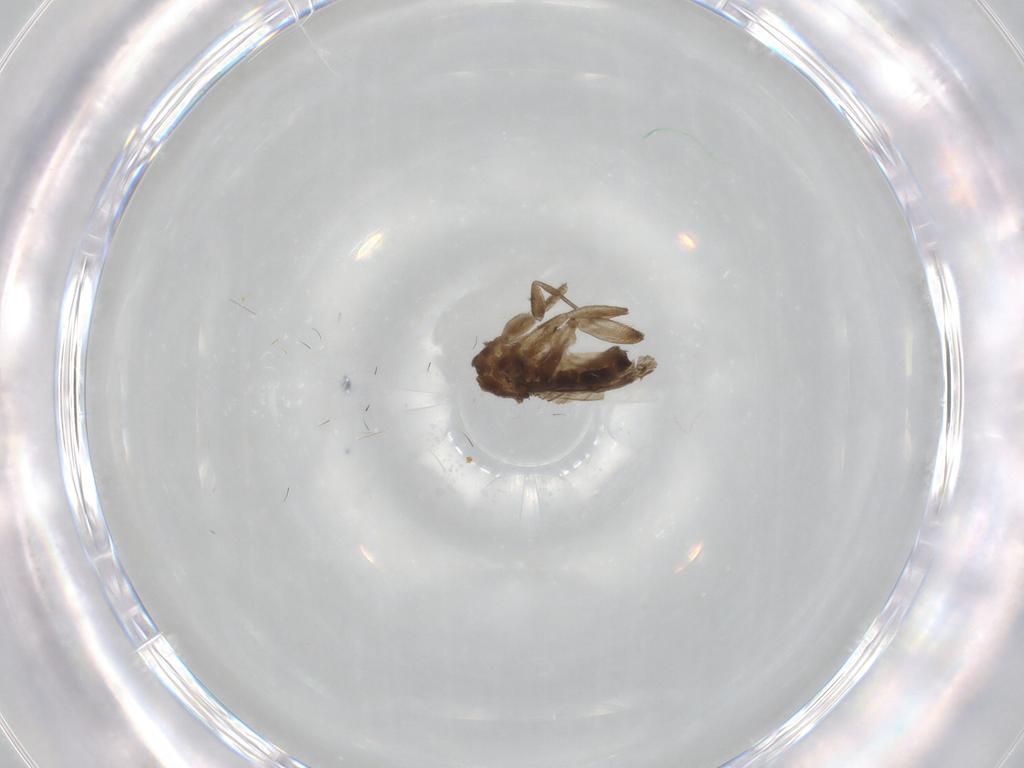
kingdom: Animalia
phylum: Arthropoda
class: Insecta
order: Diptera
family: Phoridae
